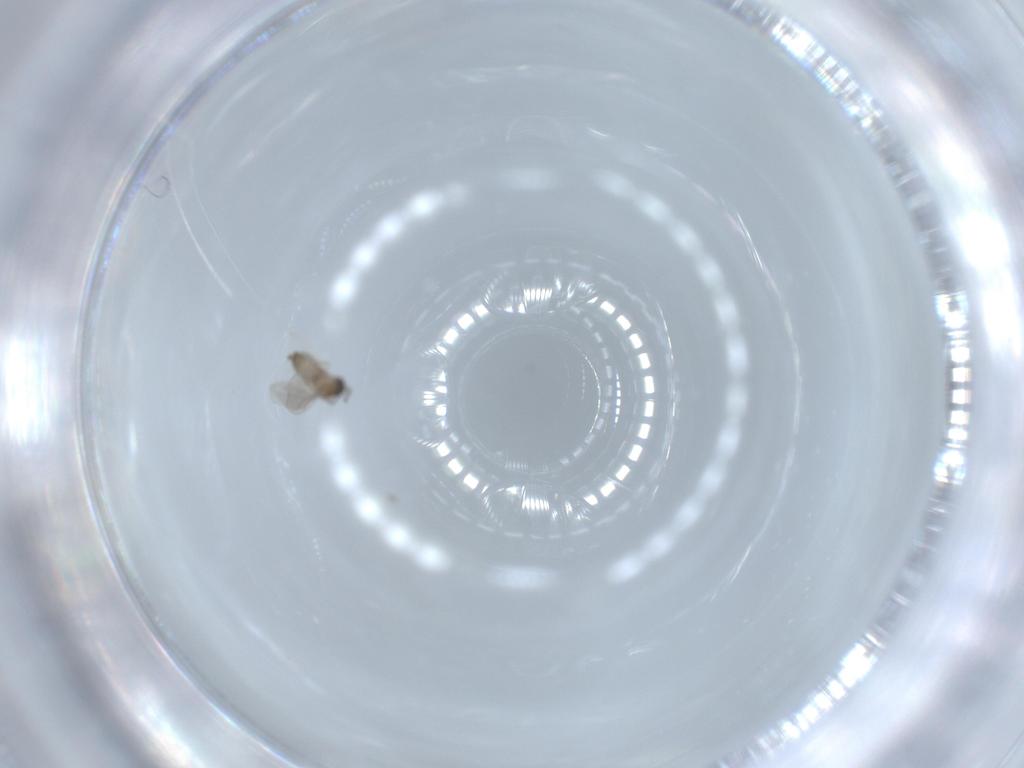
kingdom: Animalia
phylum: Arthropoda
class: Insecta
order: Diptera
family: Cecidomyiidae
